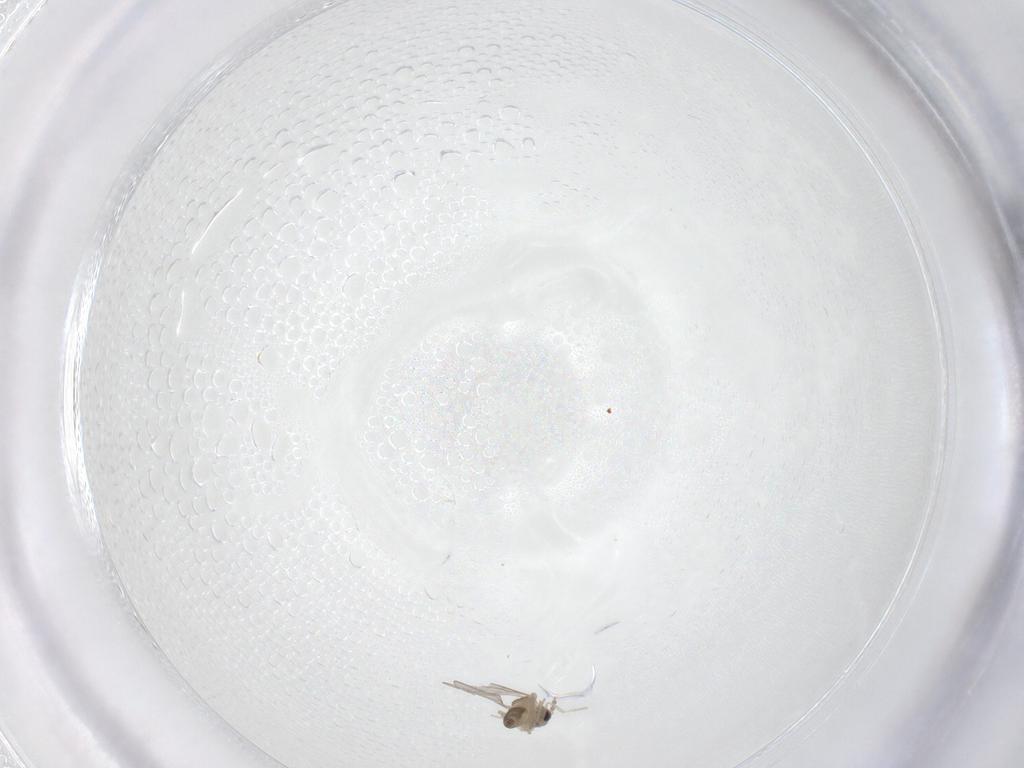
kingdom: Animalia
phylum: Arthropoda
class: Insecta
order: Diptera
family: Cecidomyiidae
